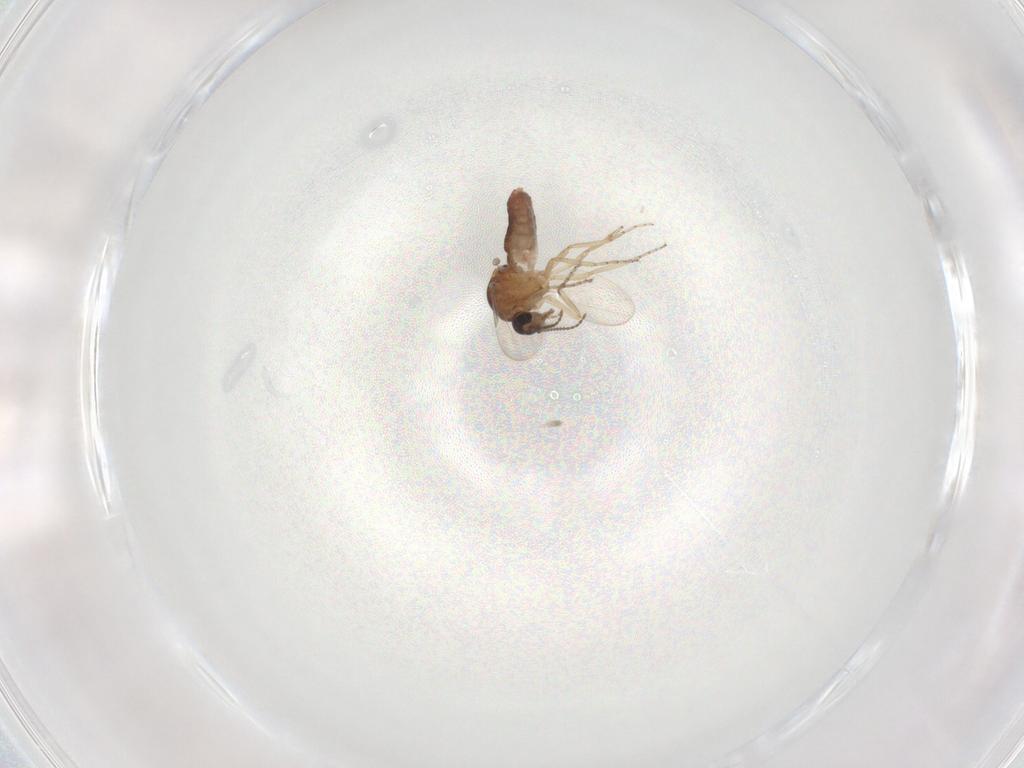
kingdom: Animalia
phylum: Arthropoda
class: Insecta
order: Diptera
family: Ceratopogonidae
